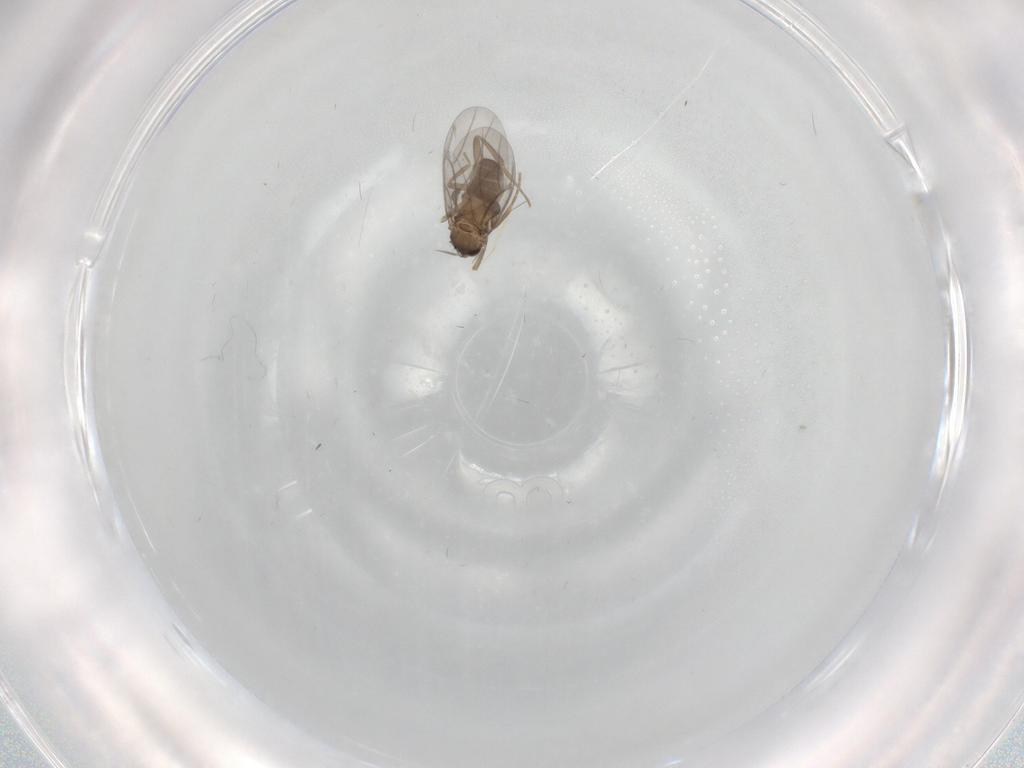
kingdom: Animalia
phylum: Arthropoda
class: Insecta
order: Diptera
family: Cecidomyiidae
